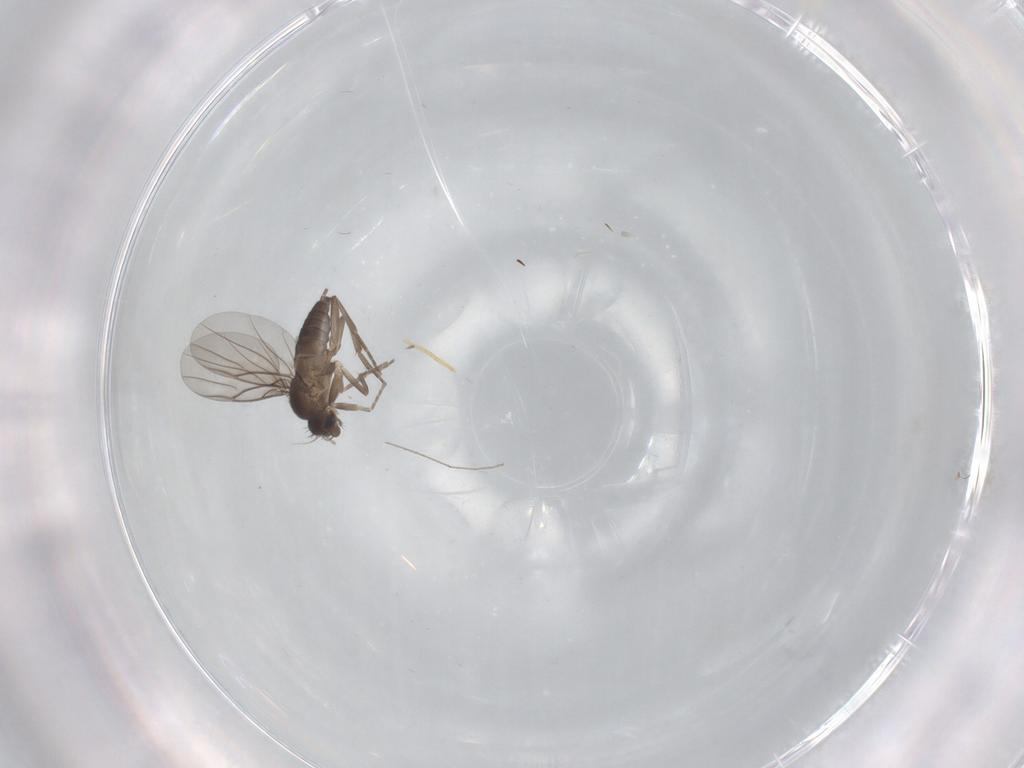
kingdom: Animalia
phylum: Arthropoda
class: Insecta
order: Diptera
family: Phoridae
